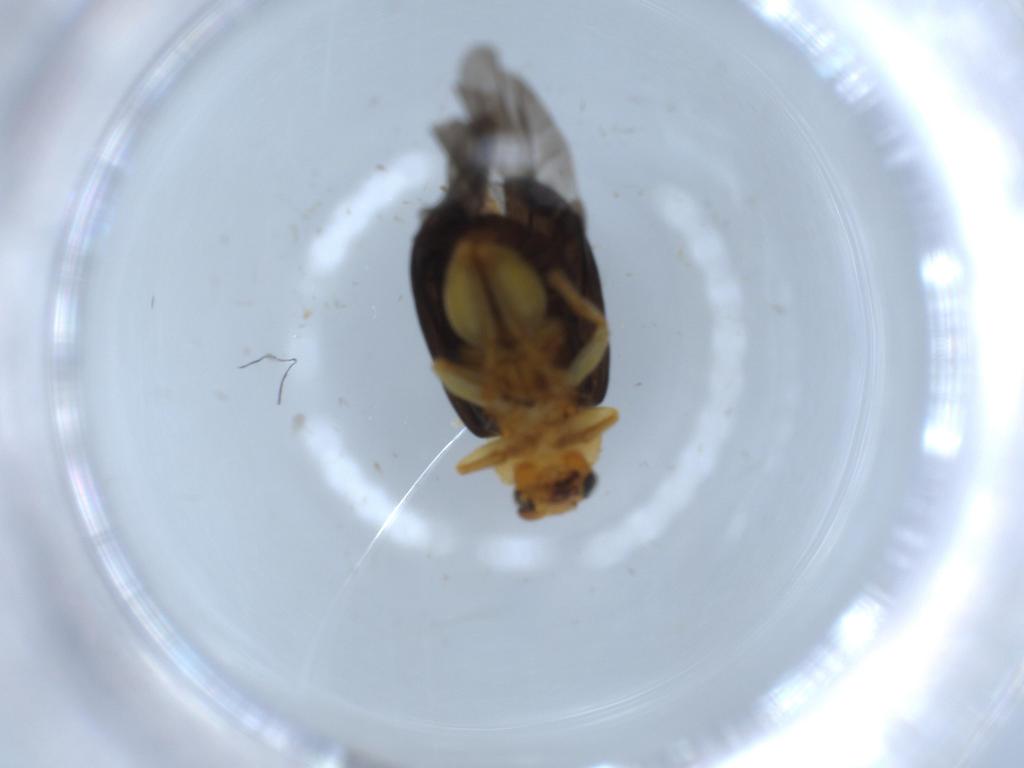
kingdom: Animalia
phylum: Arthropoda
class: Insecta
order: Coleoptera
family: Chrysomelidae
